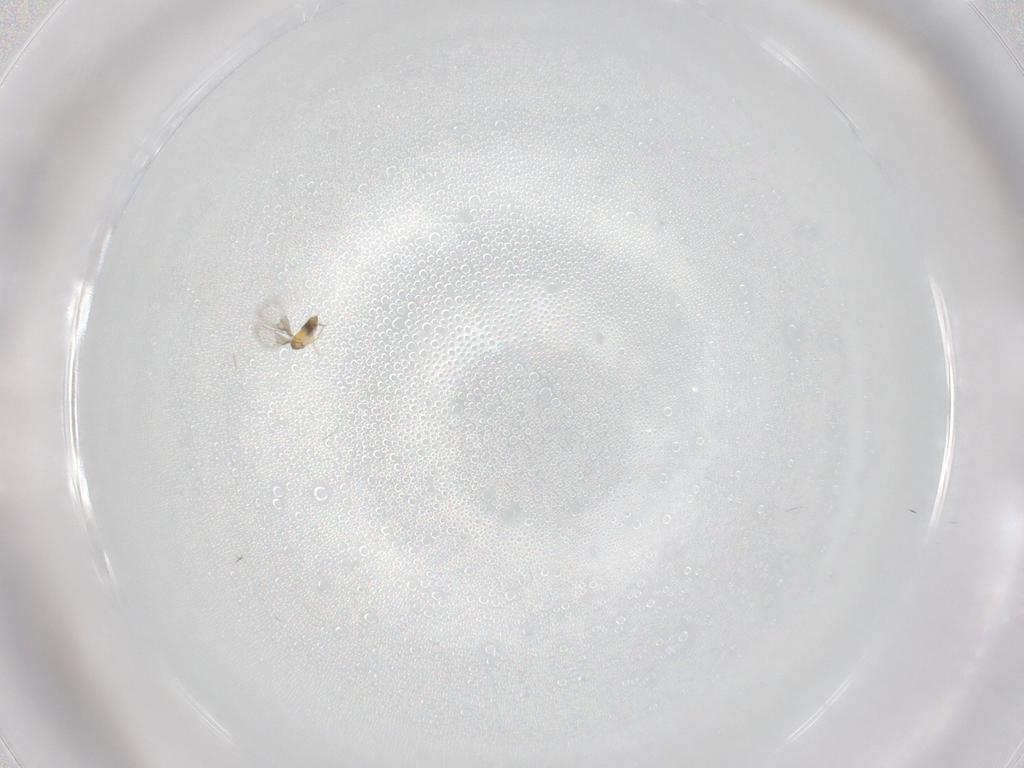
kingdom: Animalia
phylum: Arthropoda
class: Insecta
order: Hymenoptera
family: Trichogrammatidae
